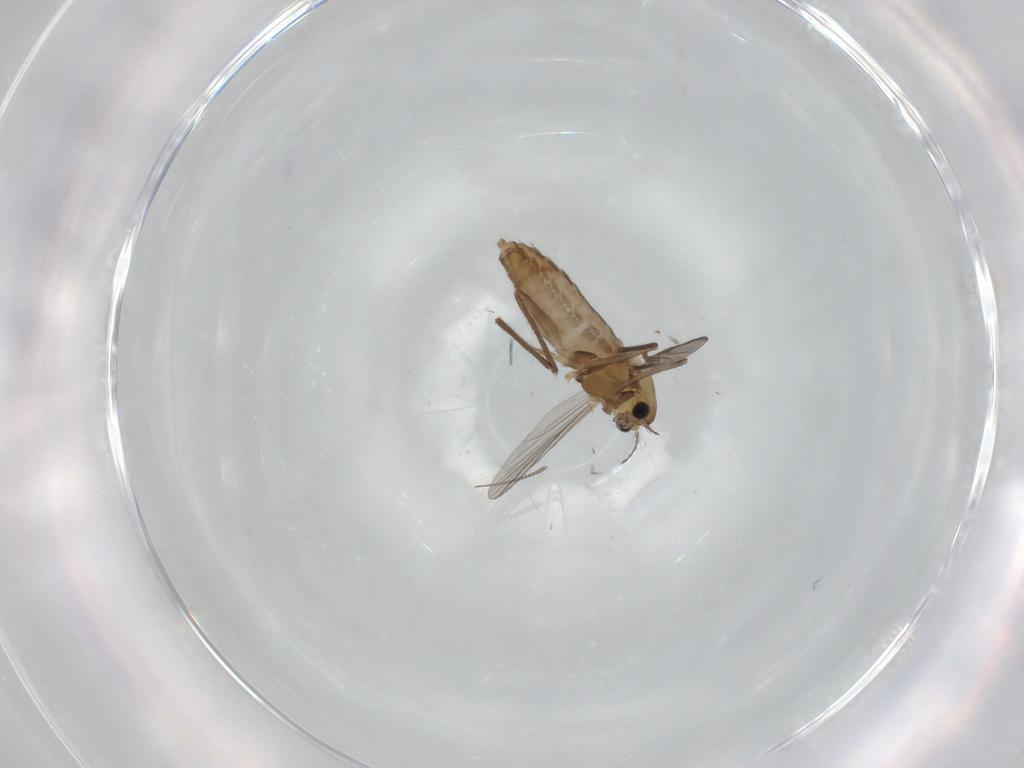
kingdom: Animalia
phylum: Arthropoda
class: Insecta
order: Diptera
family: Chironomidae
